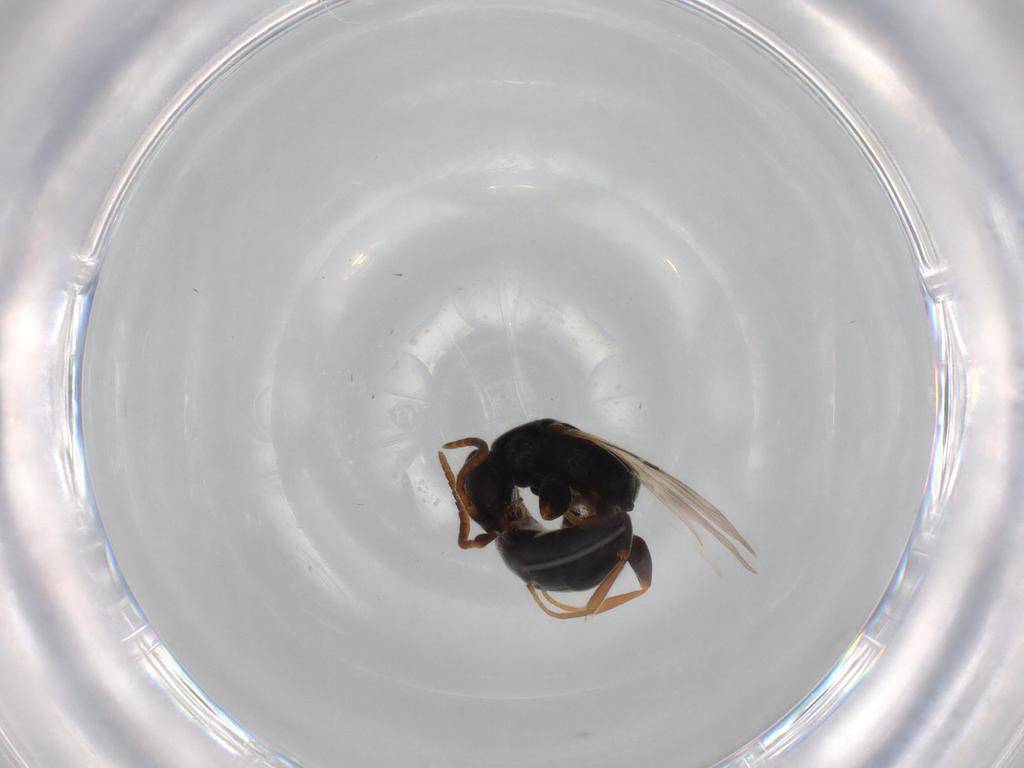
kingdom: Animalia
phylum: Arthropoda
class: Insecta
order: Hymenoptera
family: Bethylidae
